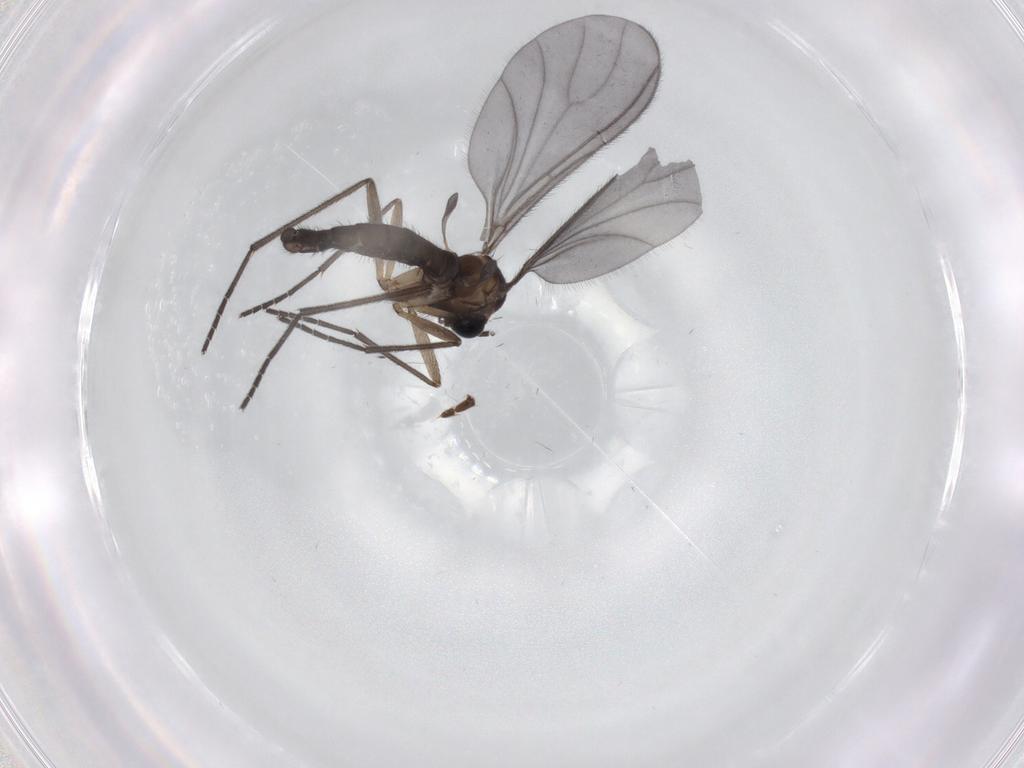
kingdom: Animalia
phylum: Arthropoda
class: Insecta
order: Diptera
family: Sciaridae
